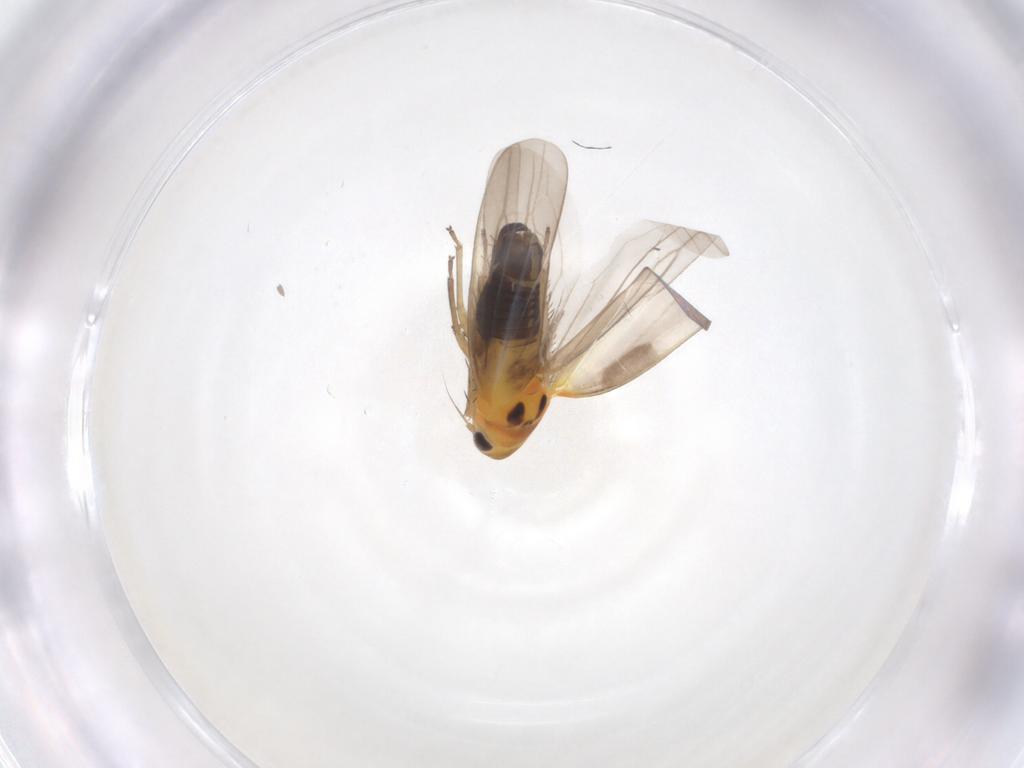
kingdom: Animalia
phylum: Arthropoda
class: Insecta
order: Hemiptera
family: Cicadellidae
